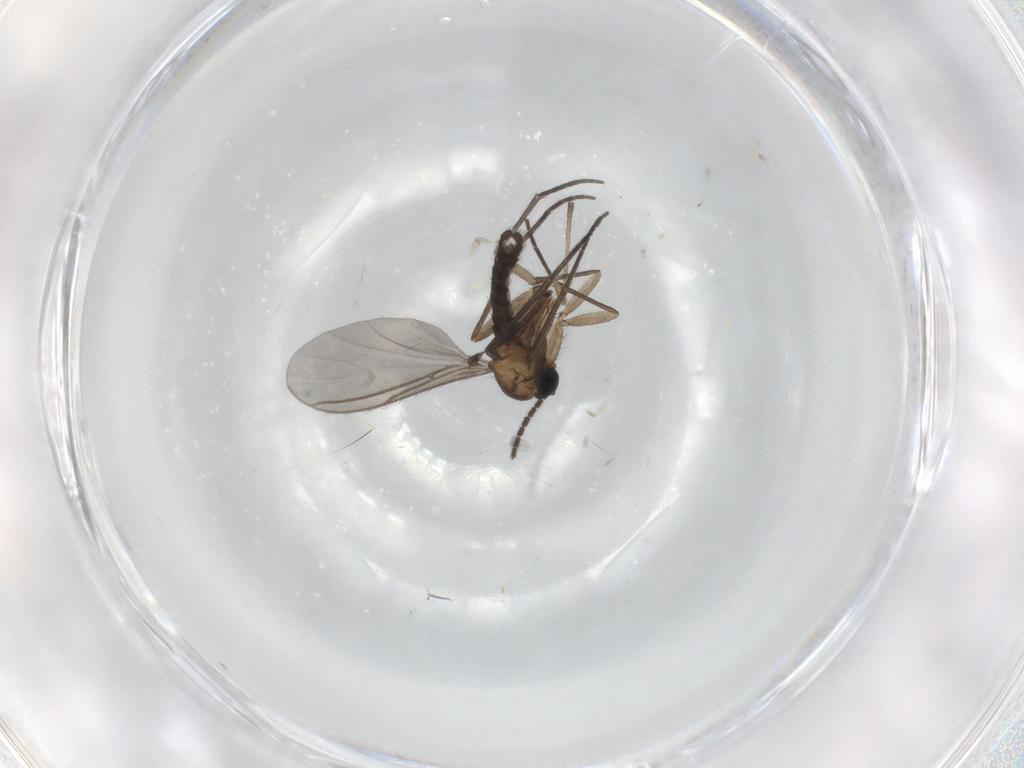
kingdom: Animalia
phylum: Arthropoda
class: Insecta
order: Diptera
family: Sciaridae
